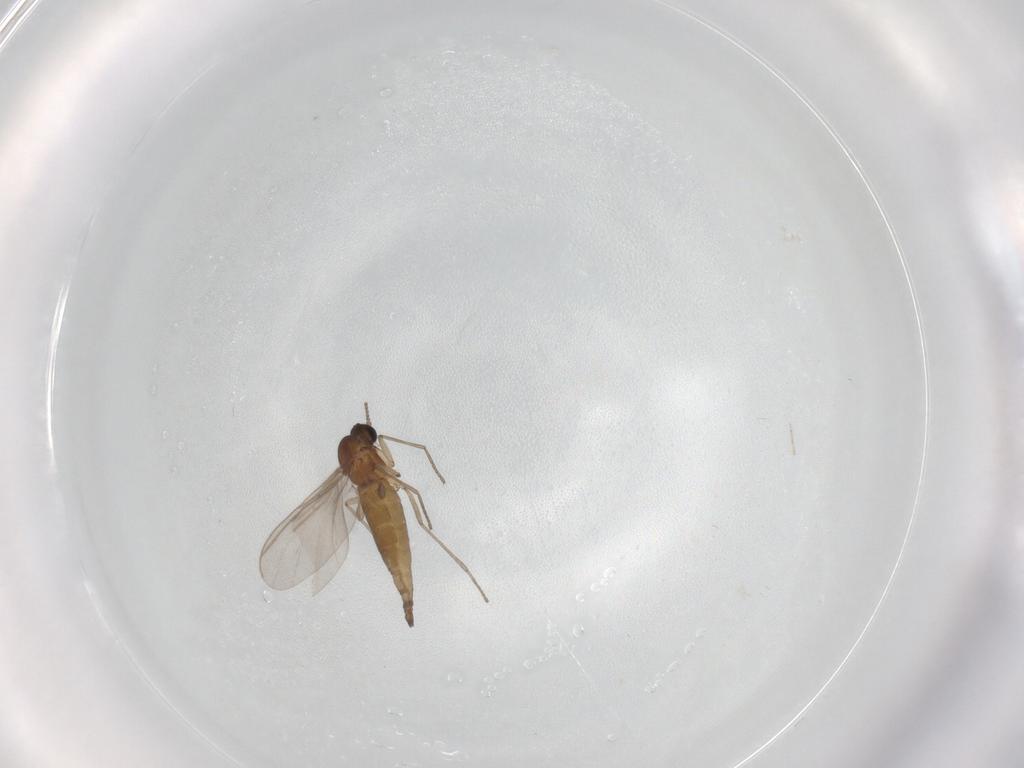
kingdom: Animalia
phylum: Arthropoda
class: Insecta
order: Diptera
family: Sciaridae
